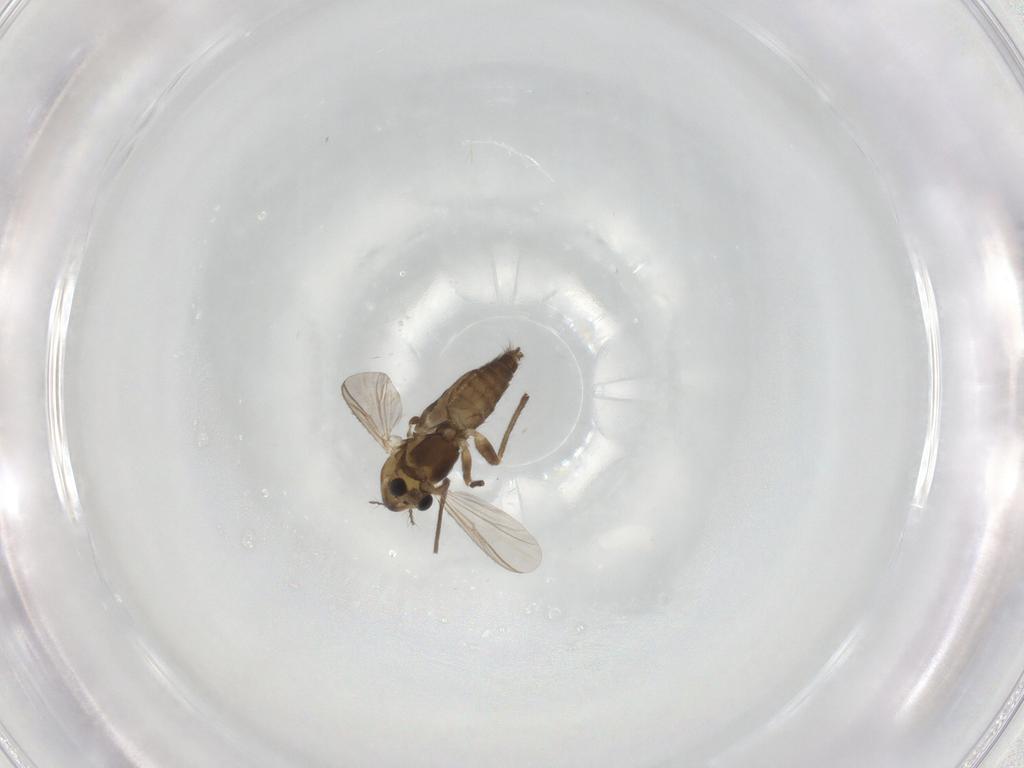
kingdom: Animalia
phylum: Arthropoda
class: Insecta
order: Diptera
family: Chironomidae
